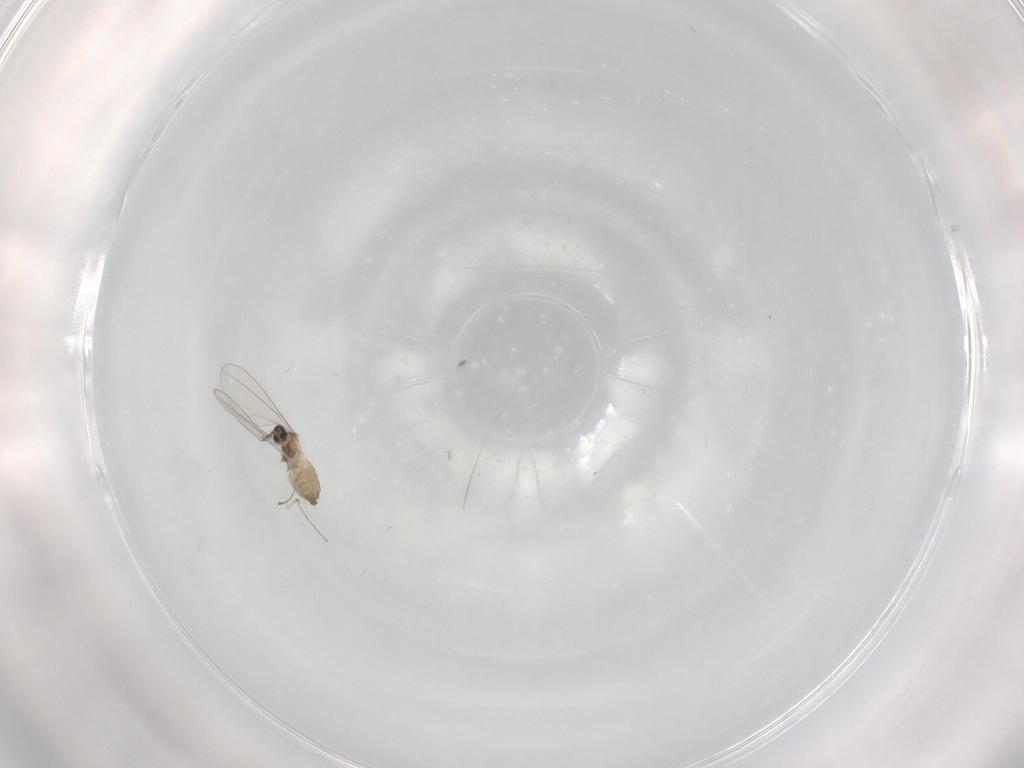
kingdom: Animalia
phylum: Arthropoda
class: Insecta
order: Diptera
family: Cecidomyiidae
